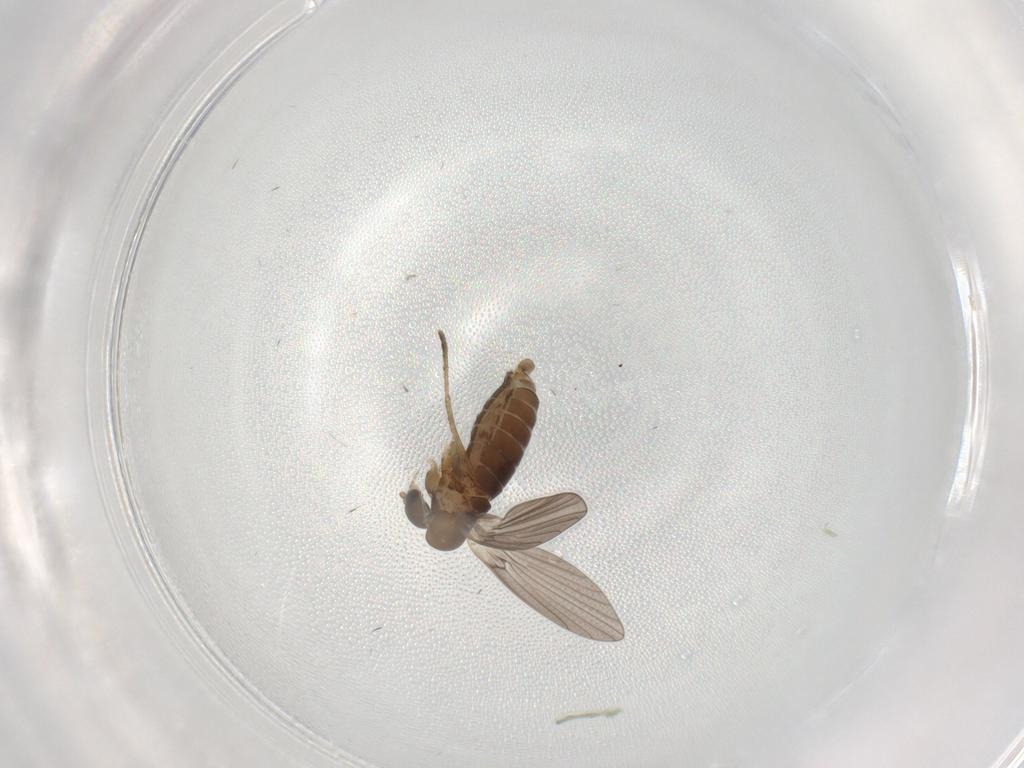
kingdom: Animalia
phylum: Arthropoda
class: Insecta
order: Diptera
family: Psychodidae
